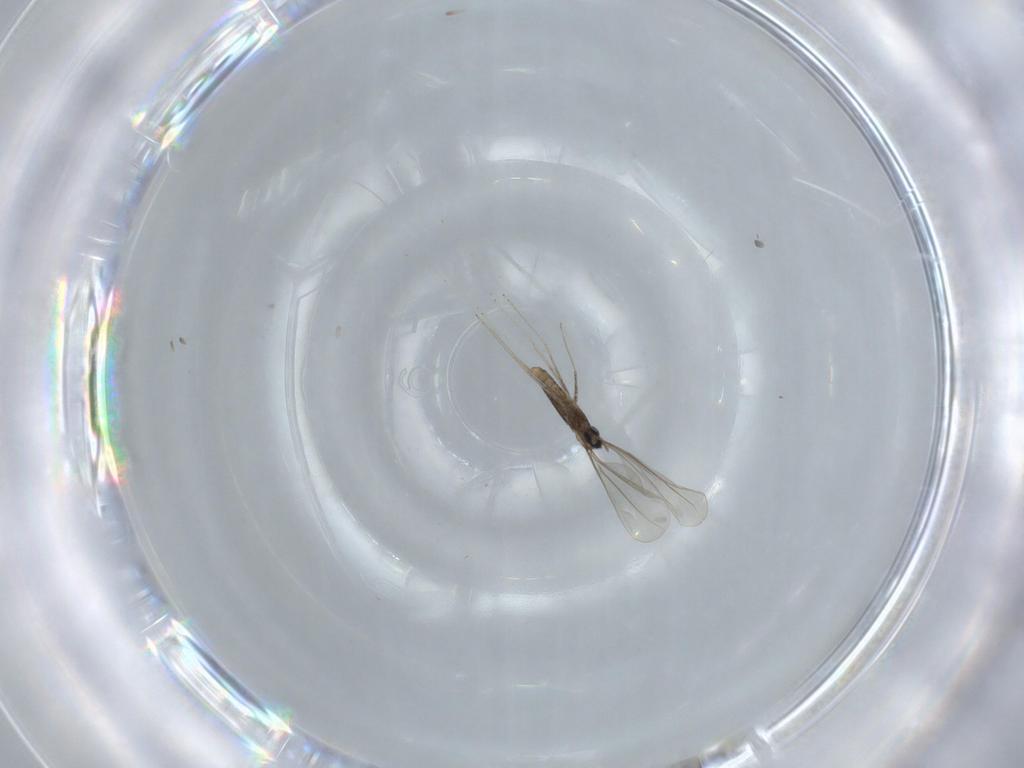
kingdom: Animalia
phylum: Arthropoda
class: Insecta
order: Diptera
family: Cecidomyiidae
